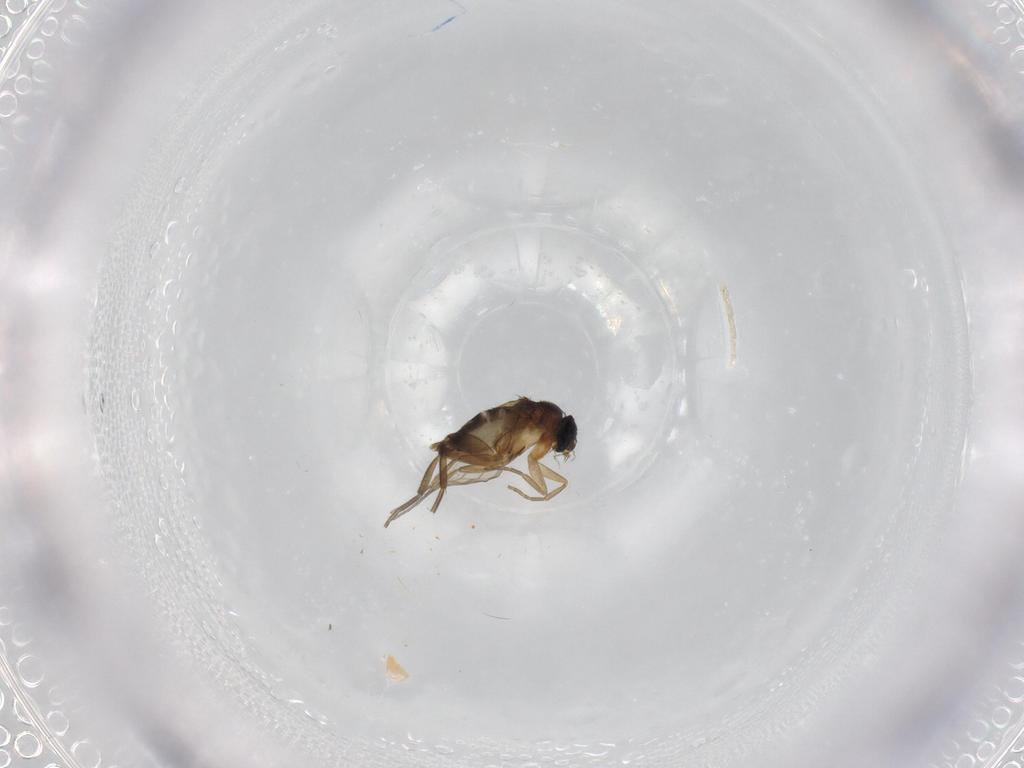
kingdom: Animalia
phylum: Arthropoda
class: Insecta
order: Diptera
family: Phoridae
